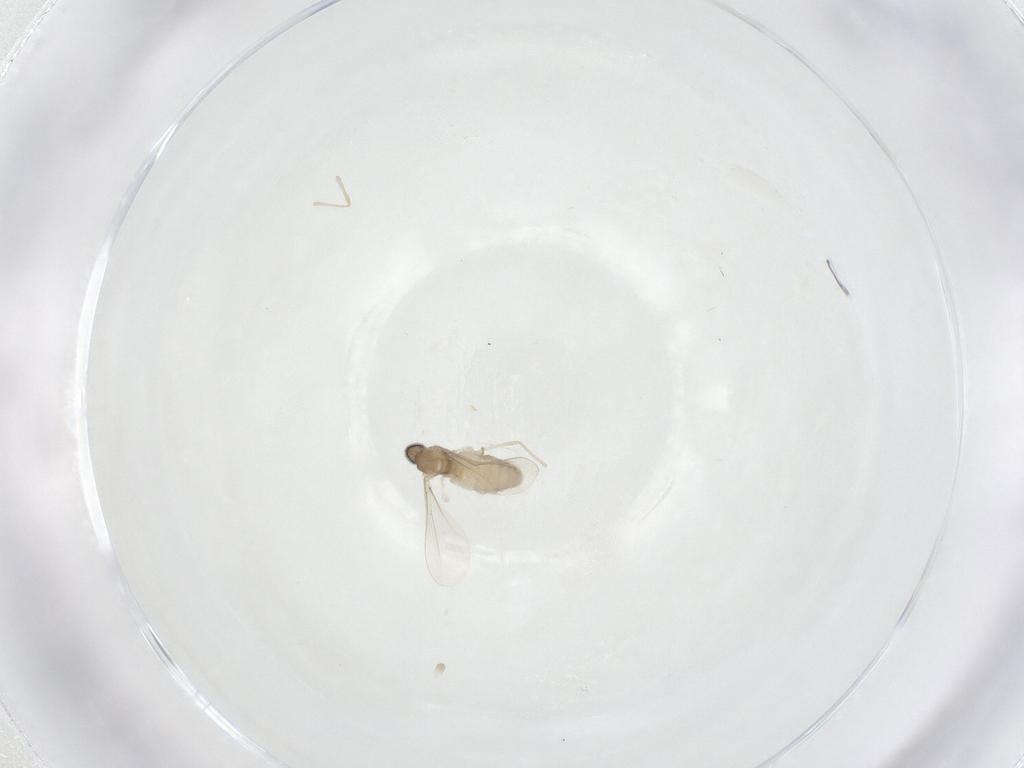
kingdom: Animalia
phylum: Arthropoda
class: Insecta
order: Diptera
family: Cecidomyiidae
